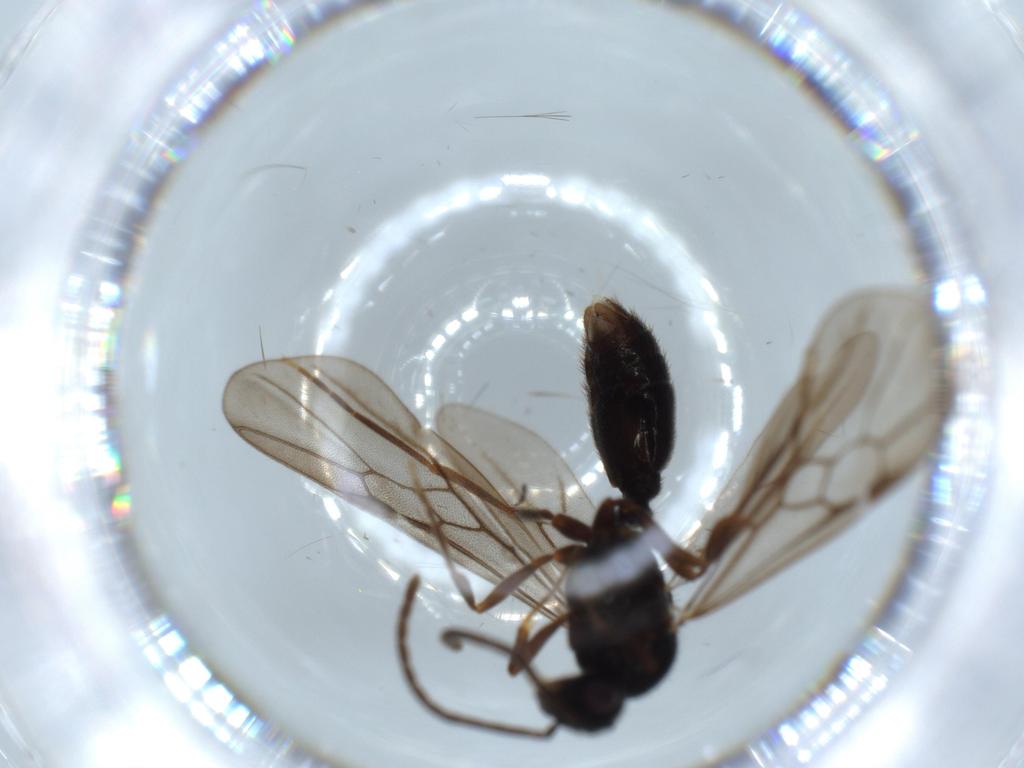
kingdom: Animalia
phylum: Arthropoda
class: Insecta
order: Hymenoptera
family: Formicidae
